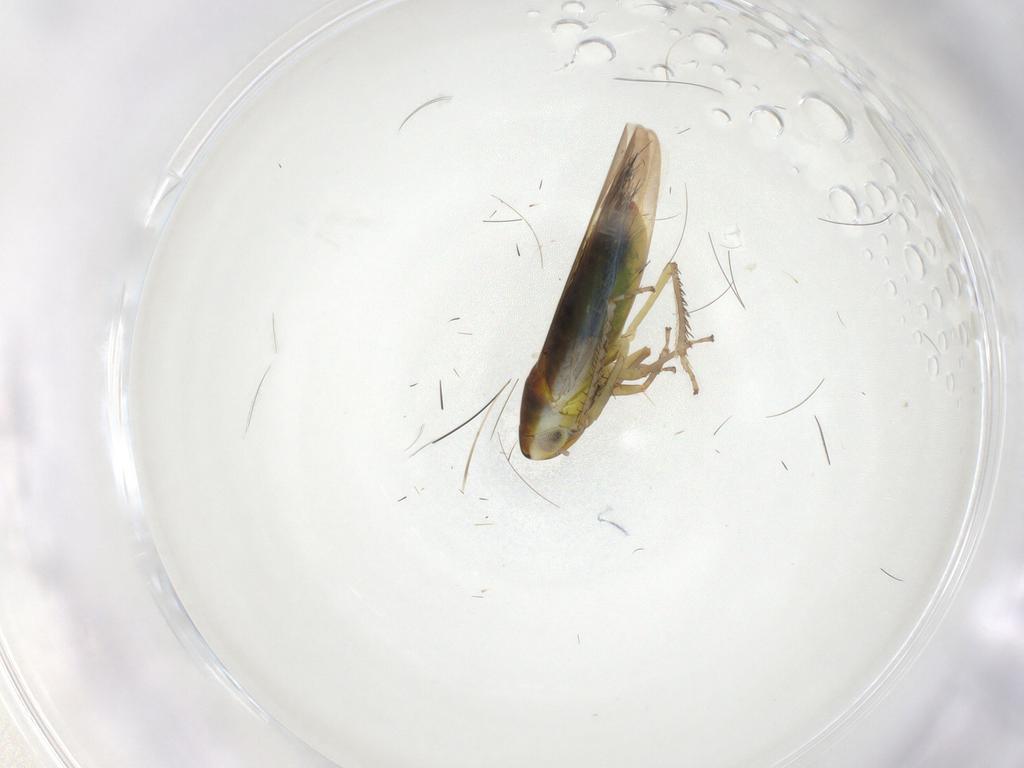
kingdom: Animalia
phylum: Arthropoda
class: Insecta
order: Hemiptera
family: Cicadellidae
